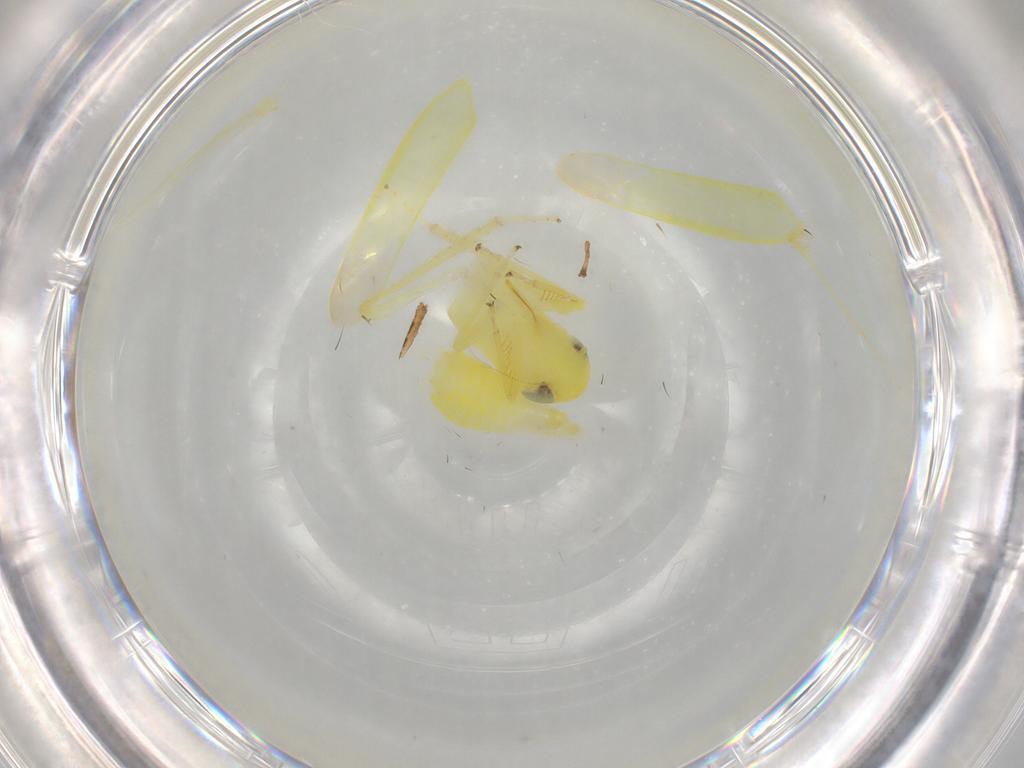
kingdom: Animalia
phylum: Arthropoda
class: Insecta
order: Hemiptera
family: Cicadellidae
